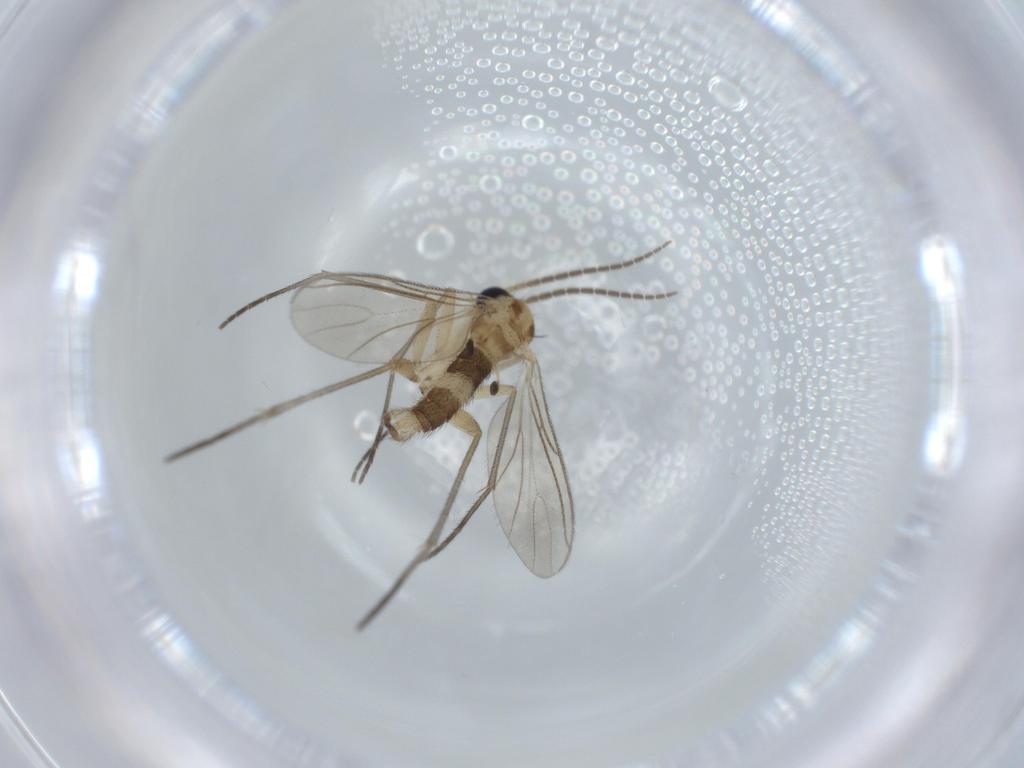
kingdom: Animalia
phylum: Arthropoda
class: Insecta
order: Diptera
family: Sciaridae
